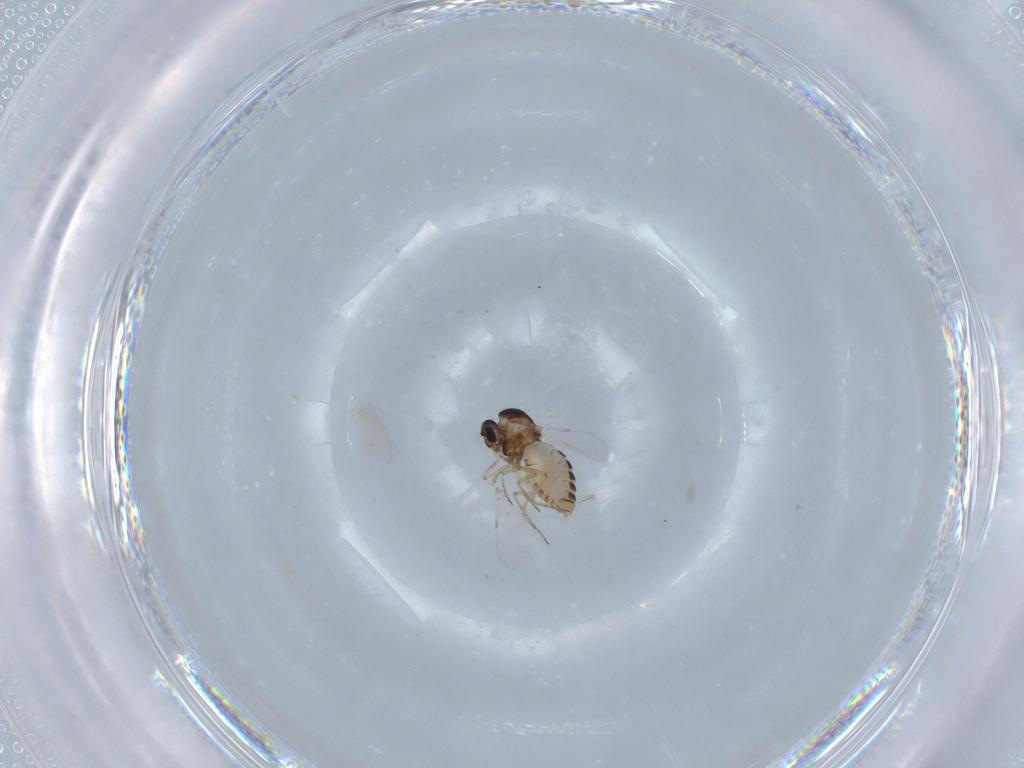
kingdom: Animalia
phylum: Arthropoda
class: Insecta
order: Diptera
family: Ceratopogonidae
